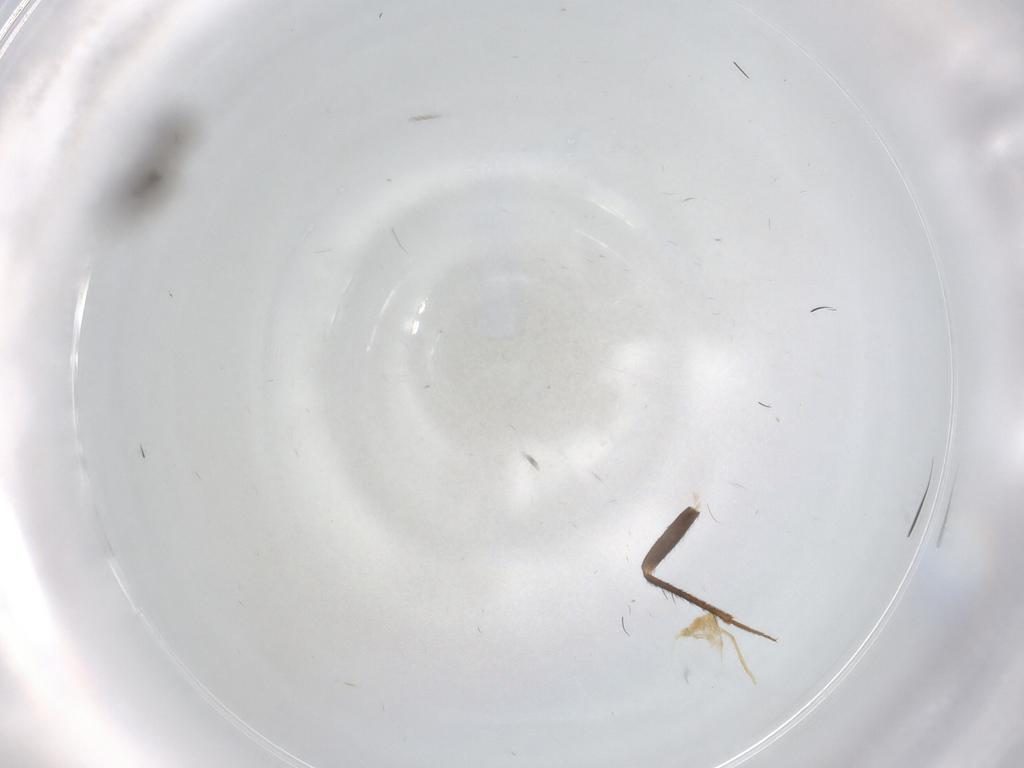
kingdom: Animalia
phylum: Arthropoda
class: Insecta
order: Diptera
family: Sciaridae
